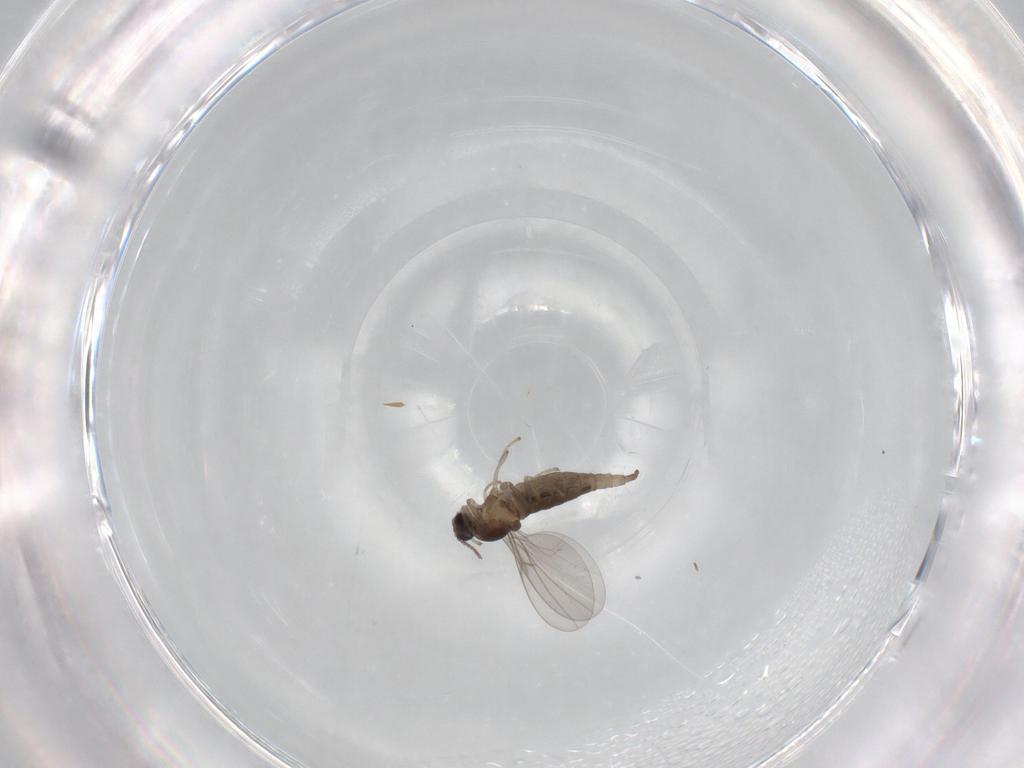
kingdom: Animalia
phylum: Arthropoda
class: Insecta
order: Diptera
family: Cecidomyiidae
